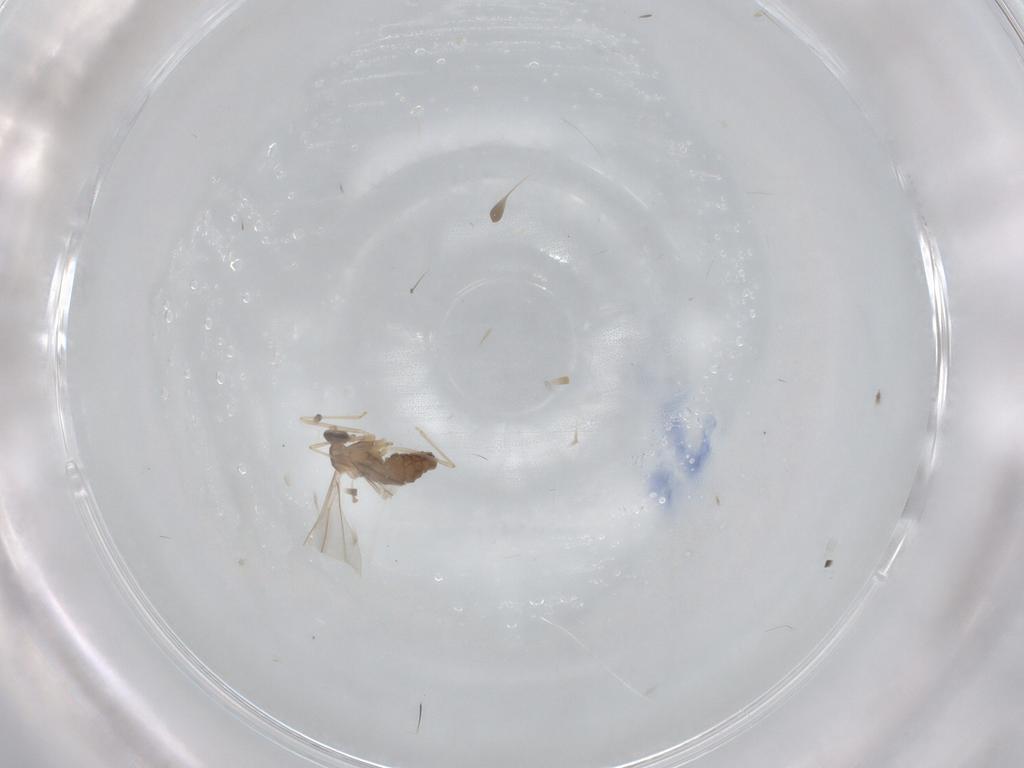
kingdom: Animalia
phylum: Arthropoda
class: Insecta
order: Diptera
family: Cecidomyiidae
